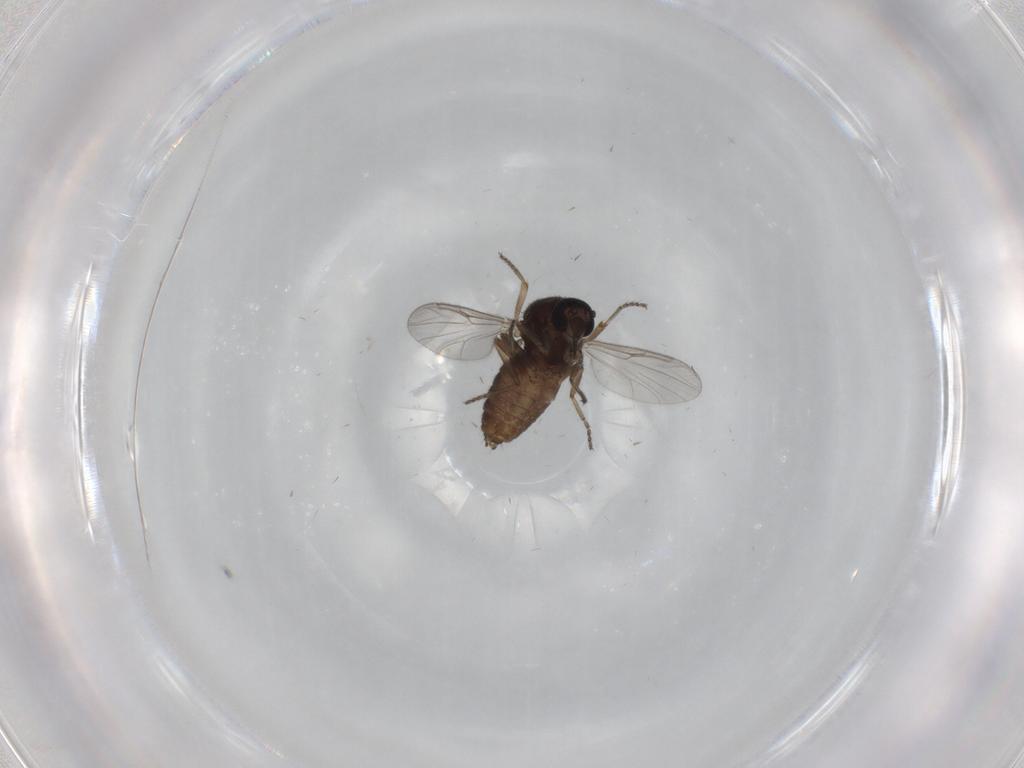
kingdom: Animalia
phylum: Arthropoda
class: Insecta
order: Diptera
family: Ceratopogonidae
